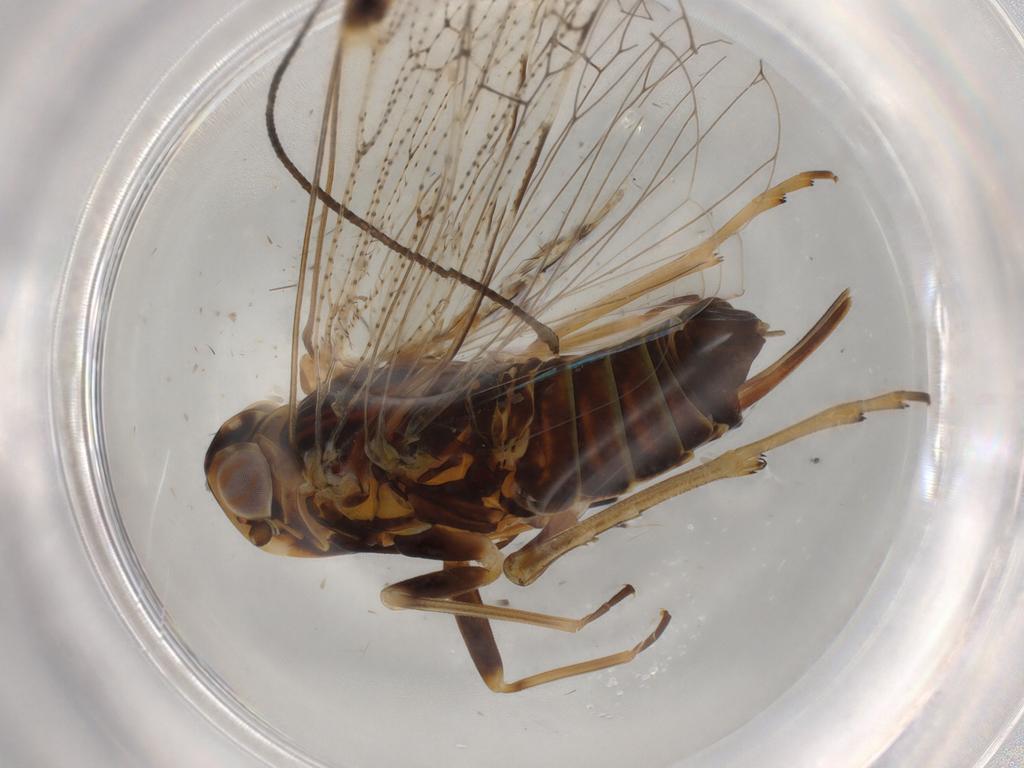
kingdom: Animalia
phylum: Arthropoda
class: Insecta
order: Hemiptera
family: Cixiidae
